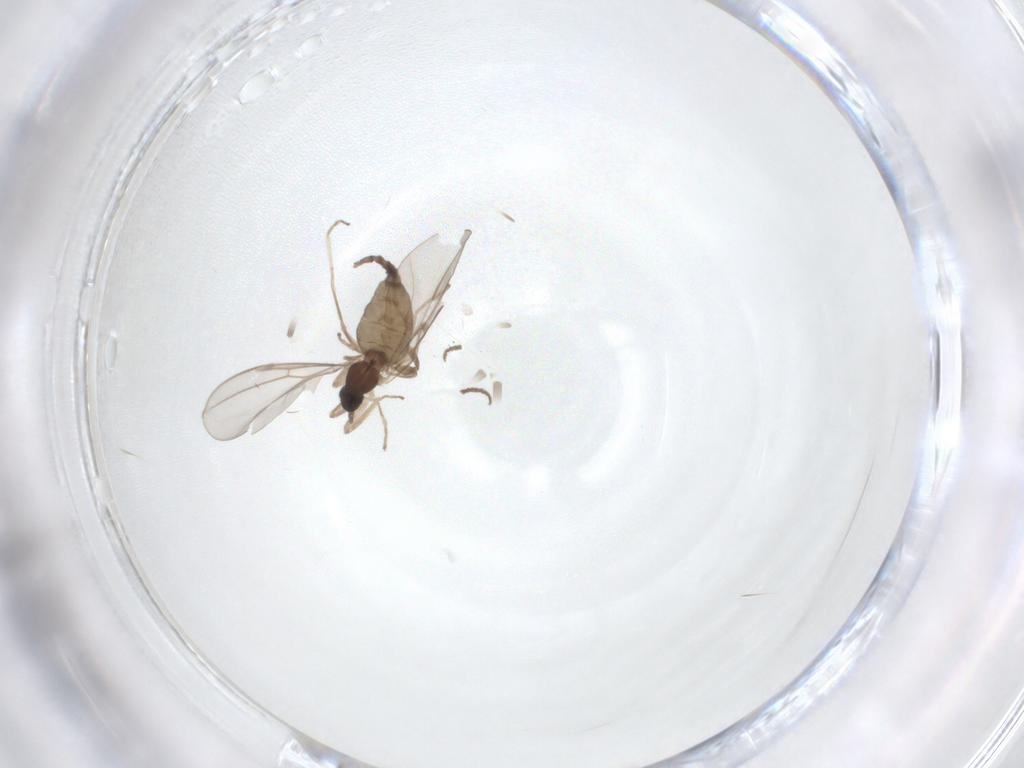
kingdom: Animalia
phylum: Arthropoda
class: Insecta
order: Diptera
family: Cecidomyiidae
